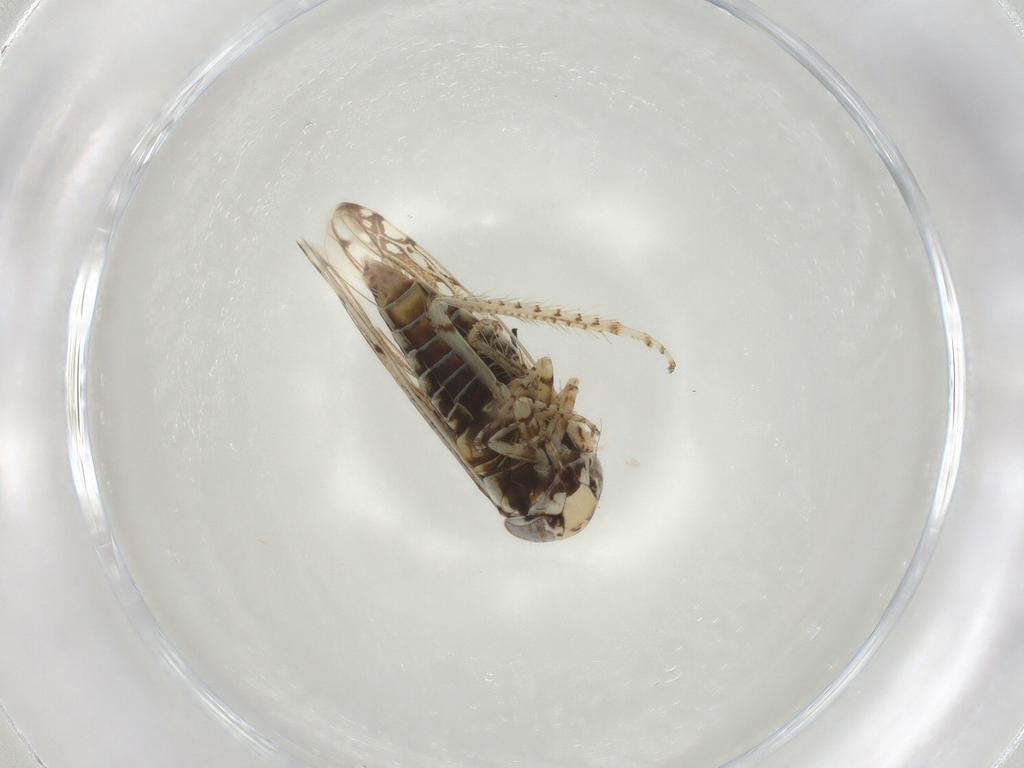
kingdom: Animalia
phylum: Arthropoda
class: Insecta
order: Hemiptera
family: Cicadellidae
